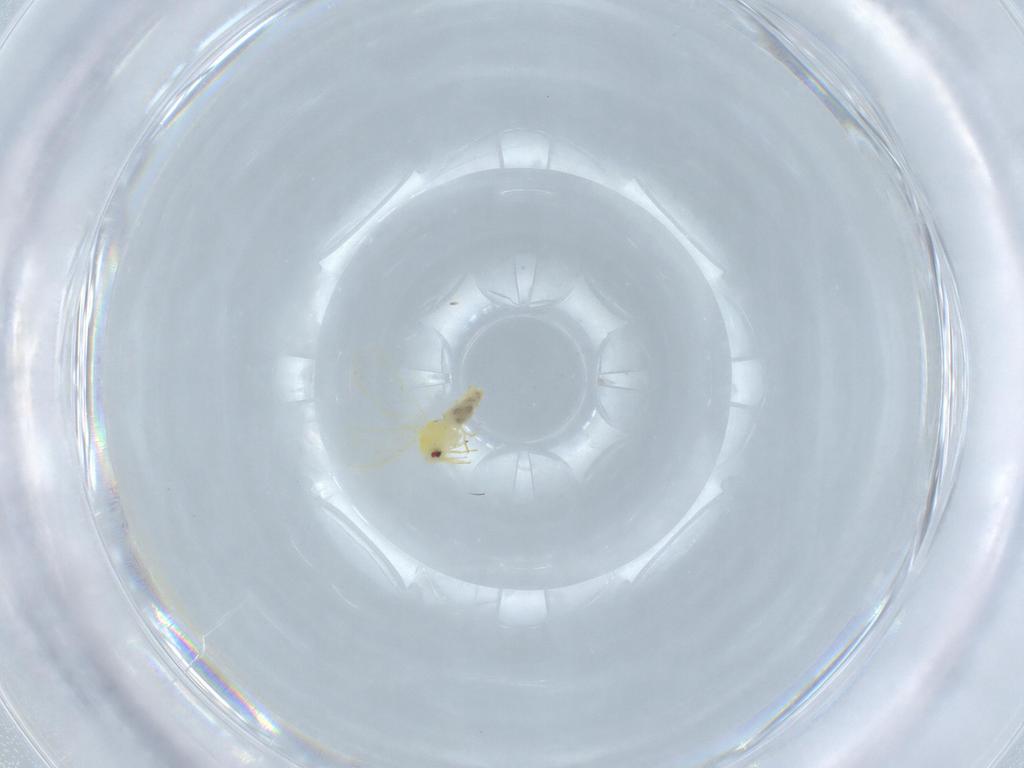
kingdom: Animalia
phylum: Arthropoda
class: Insecta
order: Hemiptera
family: Aleyrodidae
